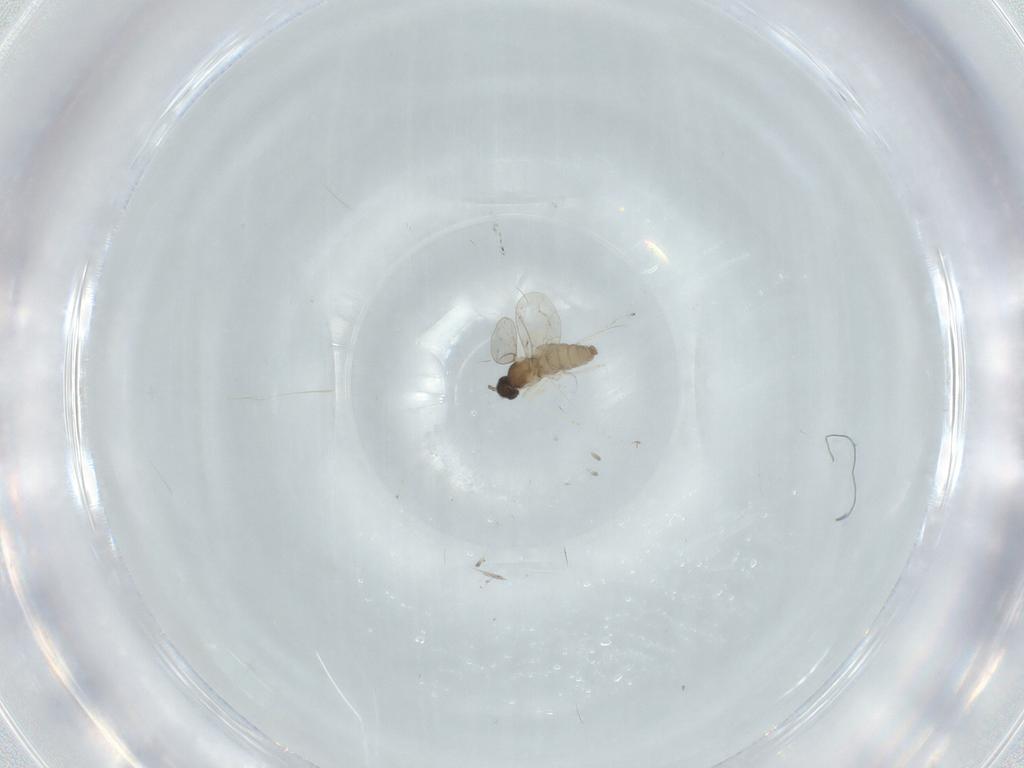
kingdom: Animalia
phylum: Arthropoda
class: Insecta
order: Diptera
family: Cecidomyiidae
